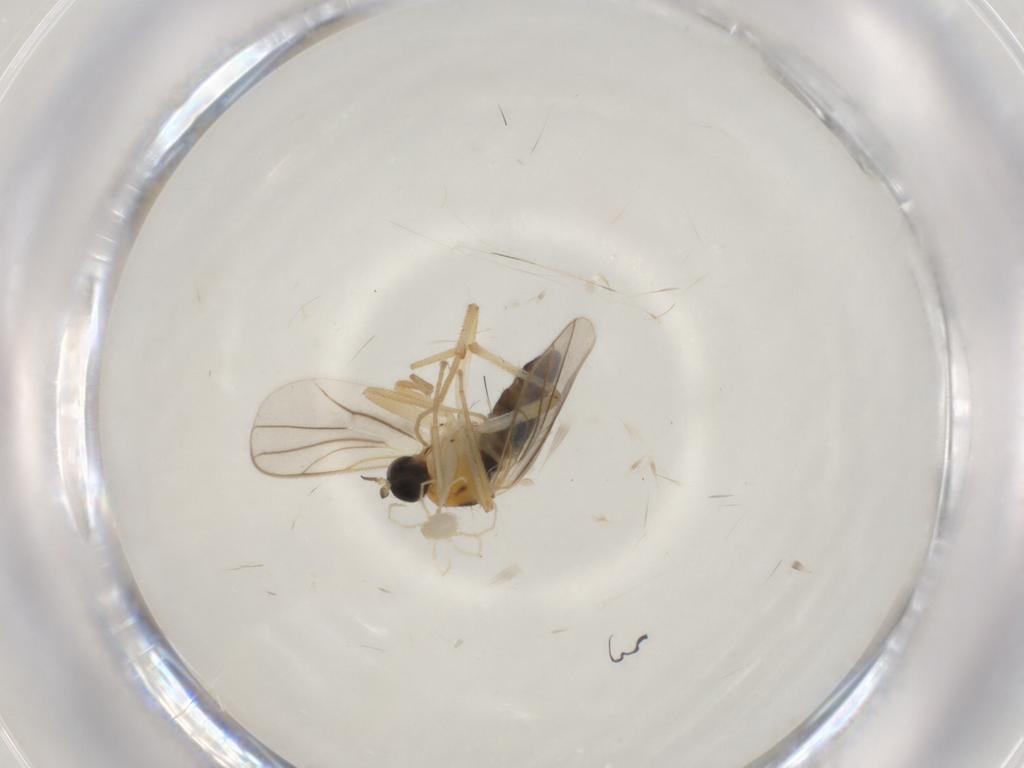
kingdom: Animalia
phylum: Arthropoda
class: Insecta
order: Diptera
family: Hybotidae
